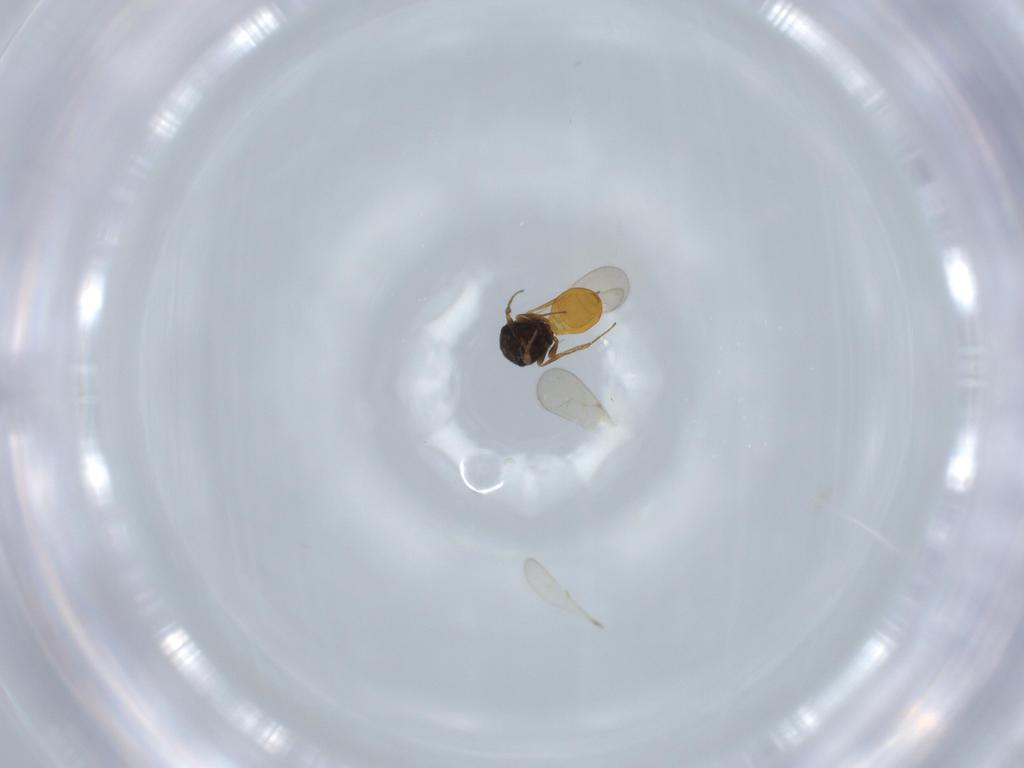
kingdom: Animalia
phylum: Arthropoda
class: Insecta
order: Hymenoptera
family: Scelionidae
